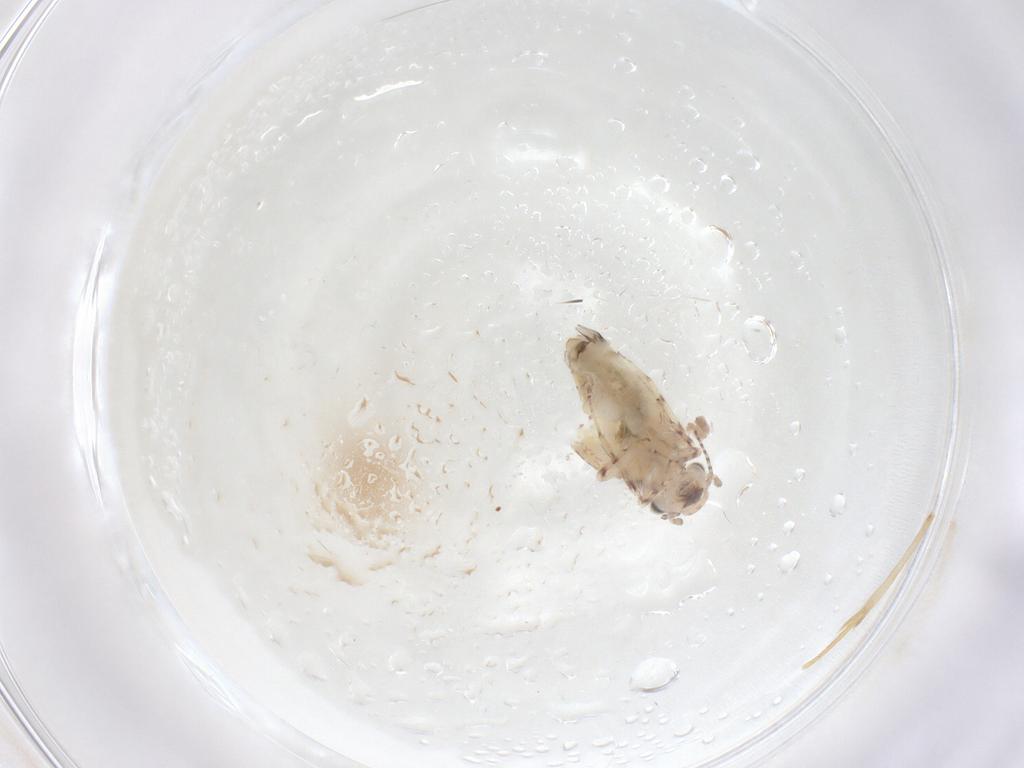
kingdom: Animalia
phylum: Arthropoda
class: Insecta
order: Psocodea
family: Trogiidae
